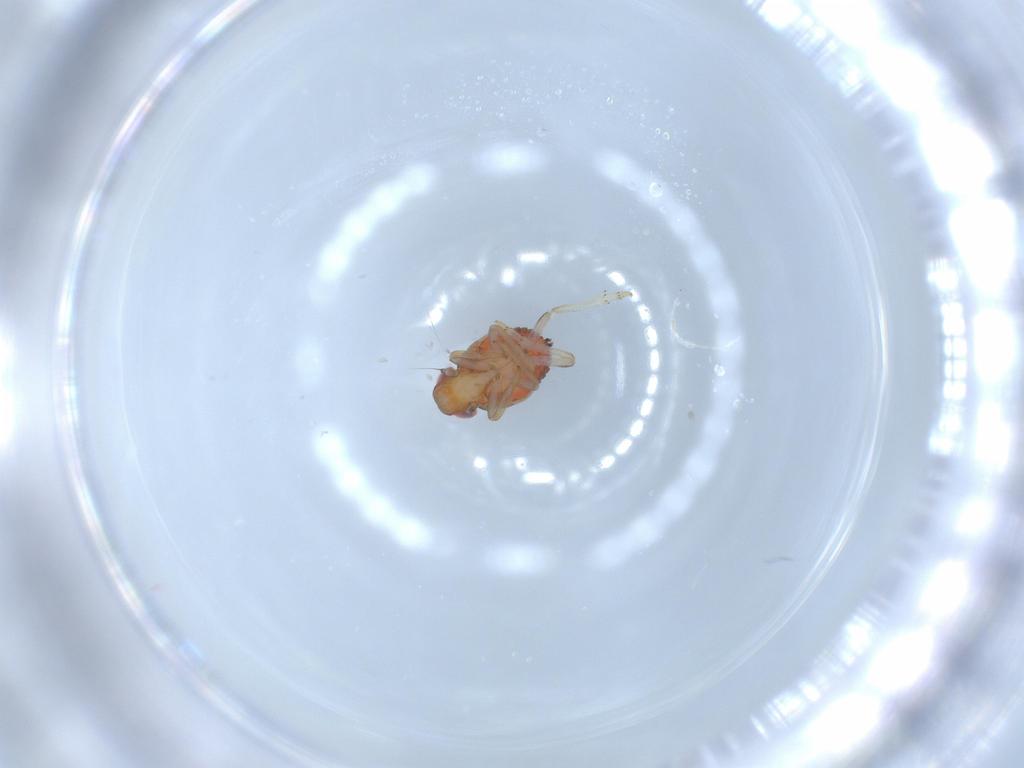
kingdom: Animalia
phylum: Arthropoda
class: Insecta
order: Hemiptera
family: Issidae
